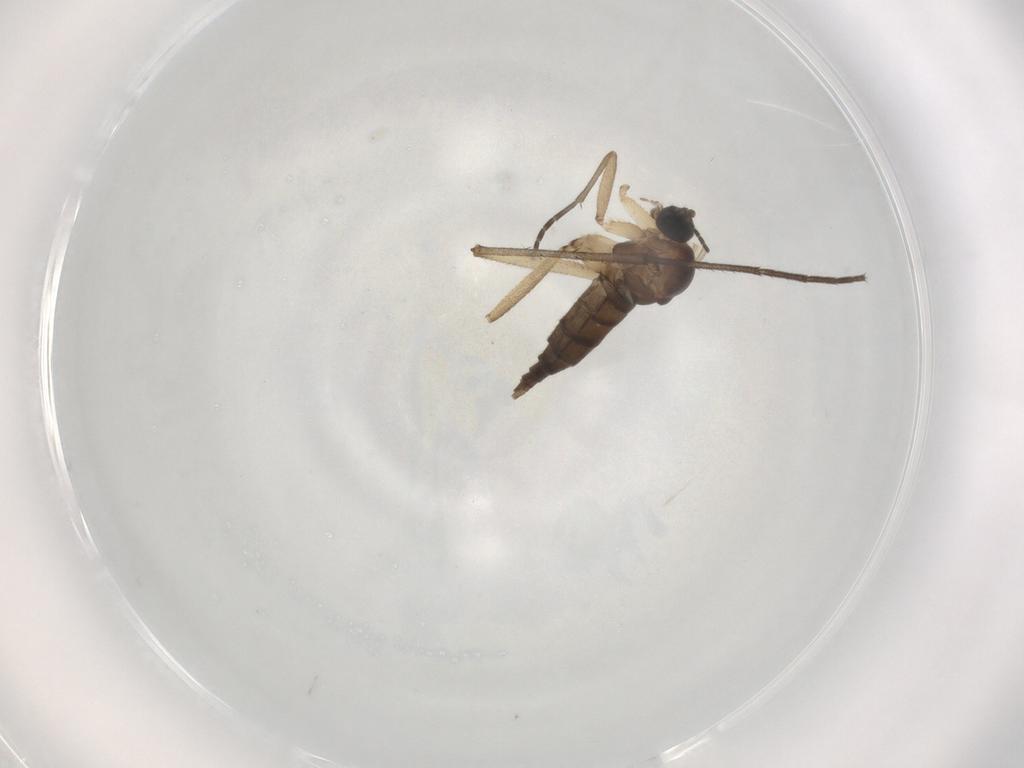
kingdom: Animalia
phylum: Arthropoda
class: Insecta
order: Diptera
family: Sciaridae
